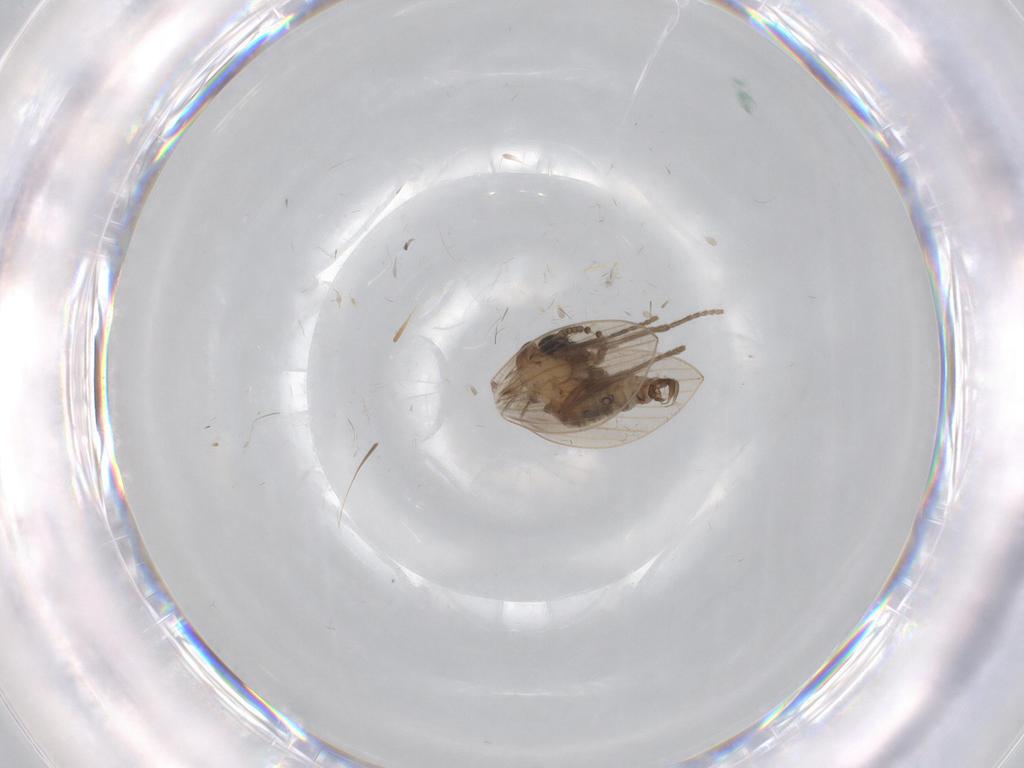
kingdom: Animalia
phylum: Arthropoda
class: Insecta
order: Diptera
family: Psychodidae
